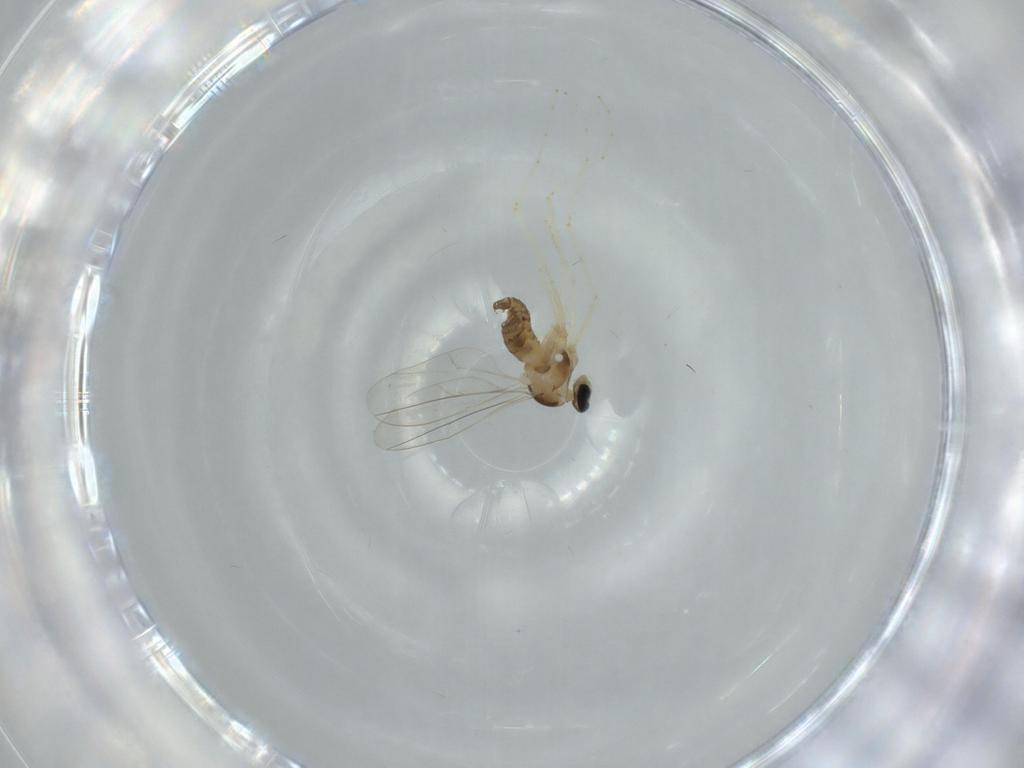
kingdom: Animalia
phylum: Arthropoda
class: Insecta
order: Diptera
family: Cecidomyiidae
